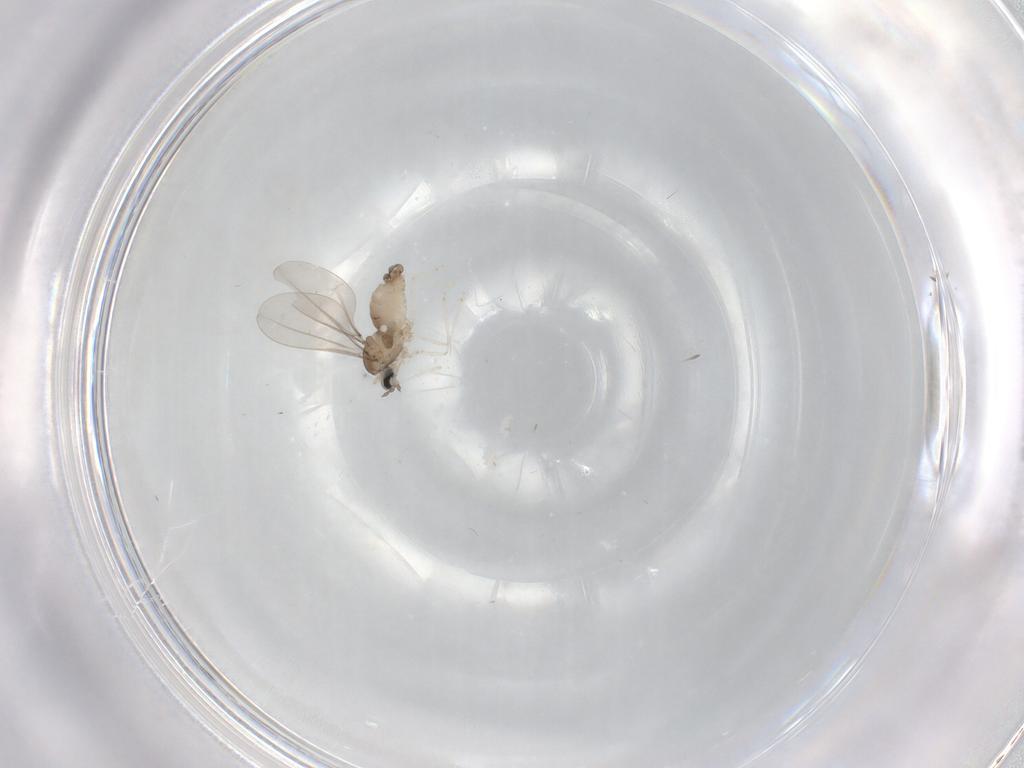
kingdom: Animalia
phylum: Arthropoda
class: Insecta
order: Diptera
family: Cecidomyiidae
